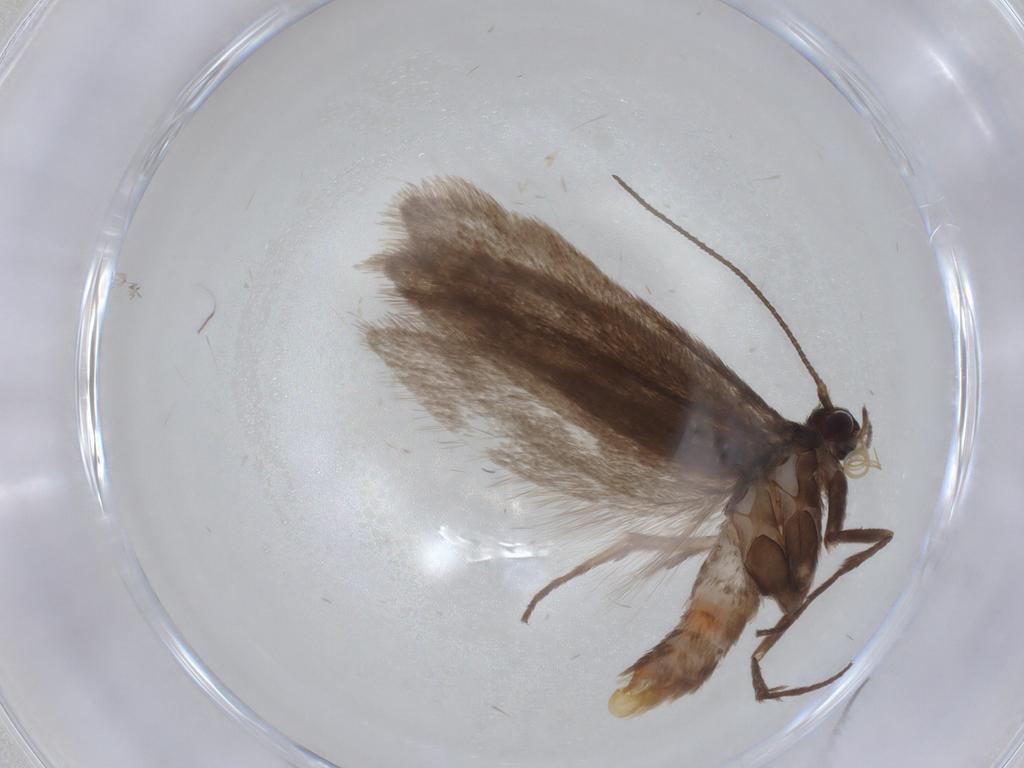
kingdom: Animalia
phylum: Arthropoda
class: Insecta
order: Lepidoptera
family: Limacodidae
